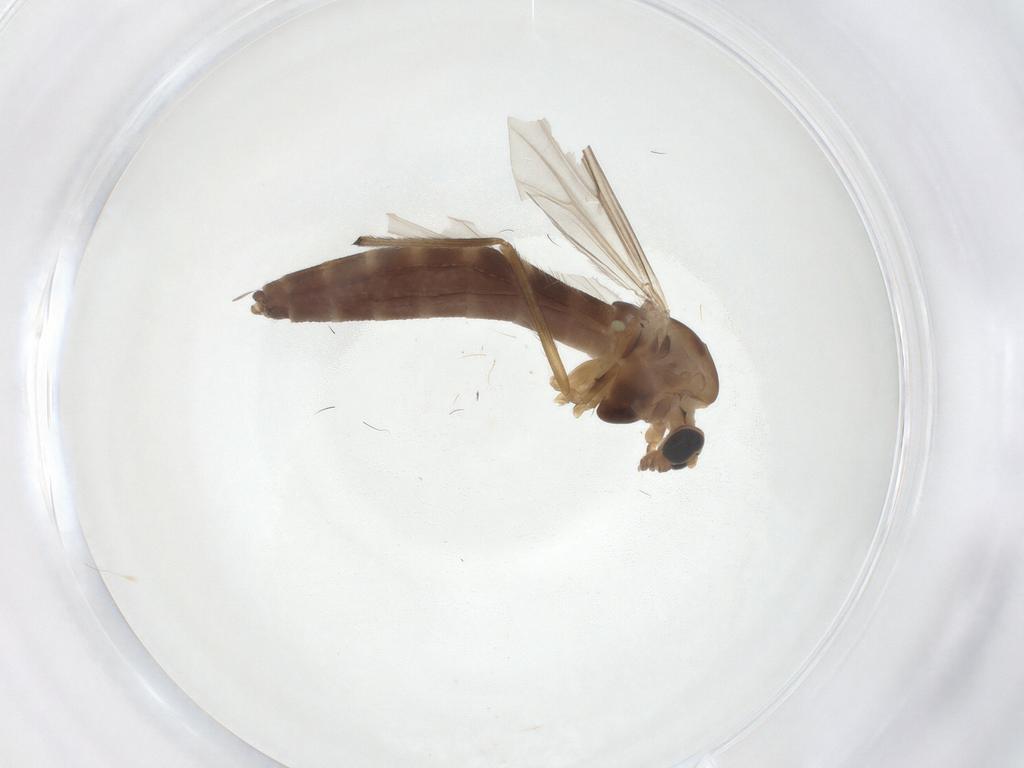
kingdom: Animalia
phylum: Arthropoda
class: Insecta
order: Diptera
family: Chironomidae
